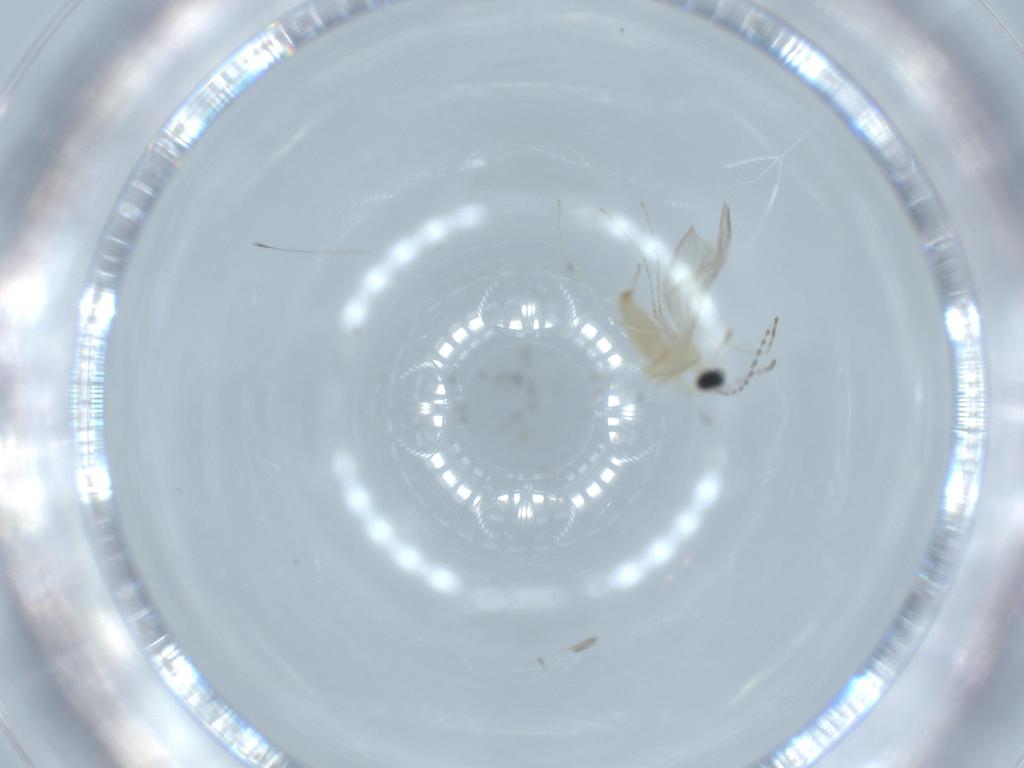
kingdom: Animalia
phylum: Arthropoda
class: Insecta
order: Diptera
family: Cecidomyiidae
